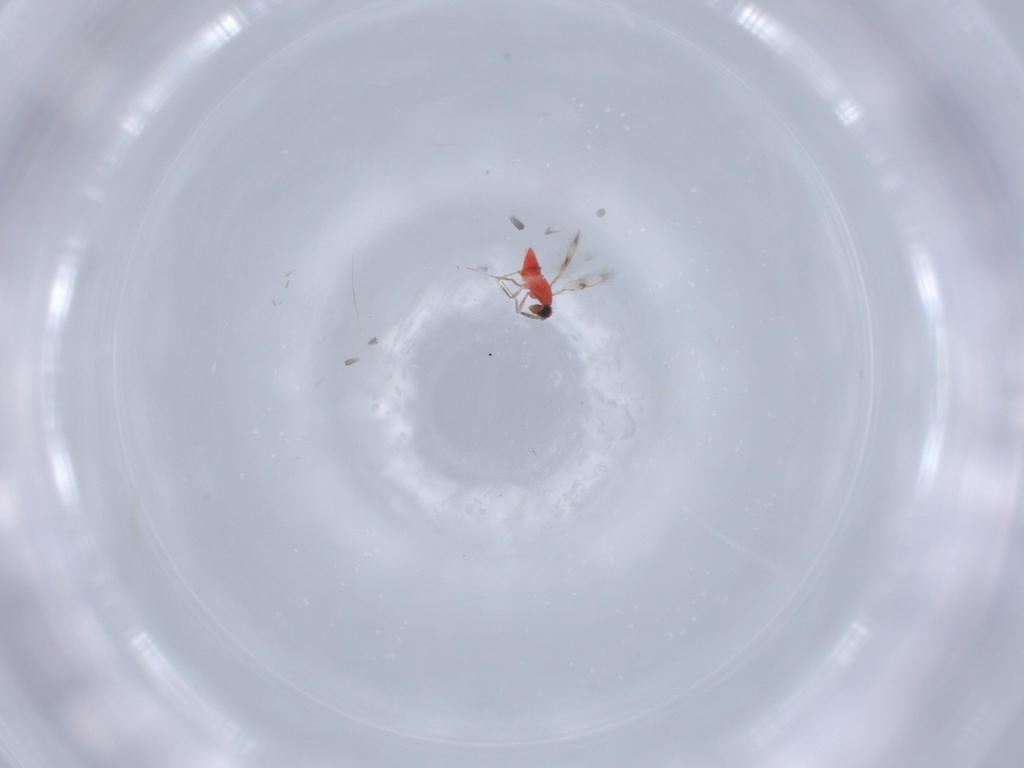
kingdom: Animalia
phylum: Arthropoda
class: Insecta
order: Hymenoptera
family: Trichogrammatidae
